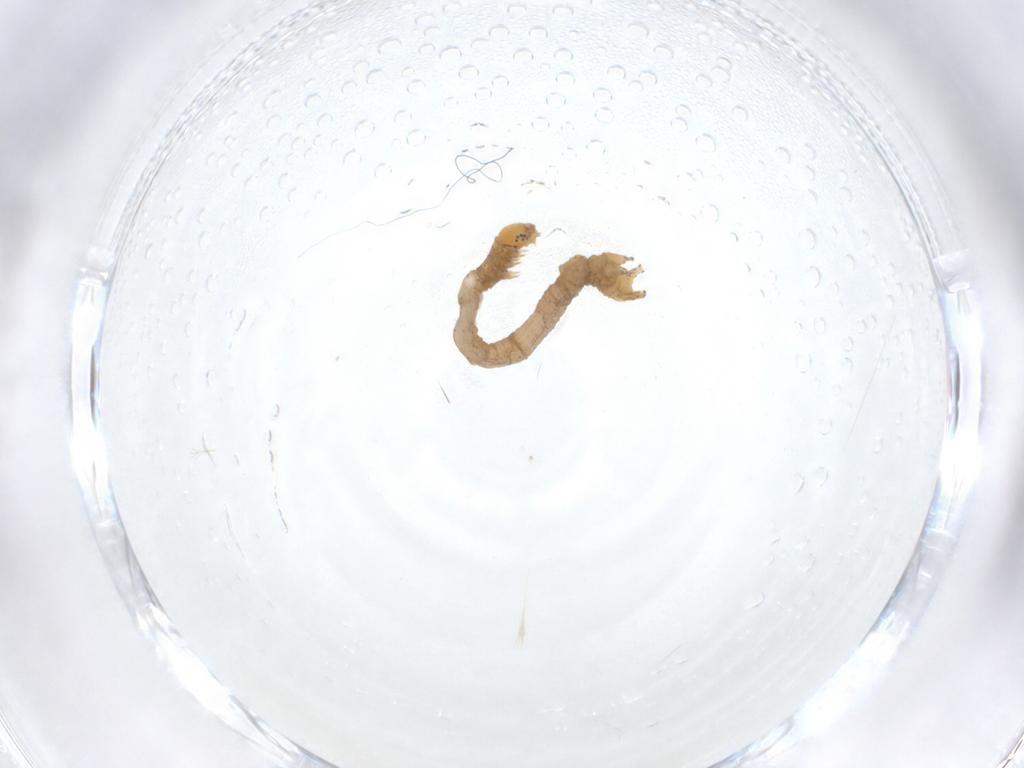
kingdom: Animalia
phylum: Arthropoda
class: Insecta
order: Lepidoptera
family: Geometridae
